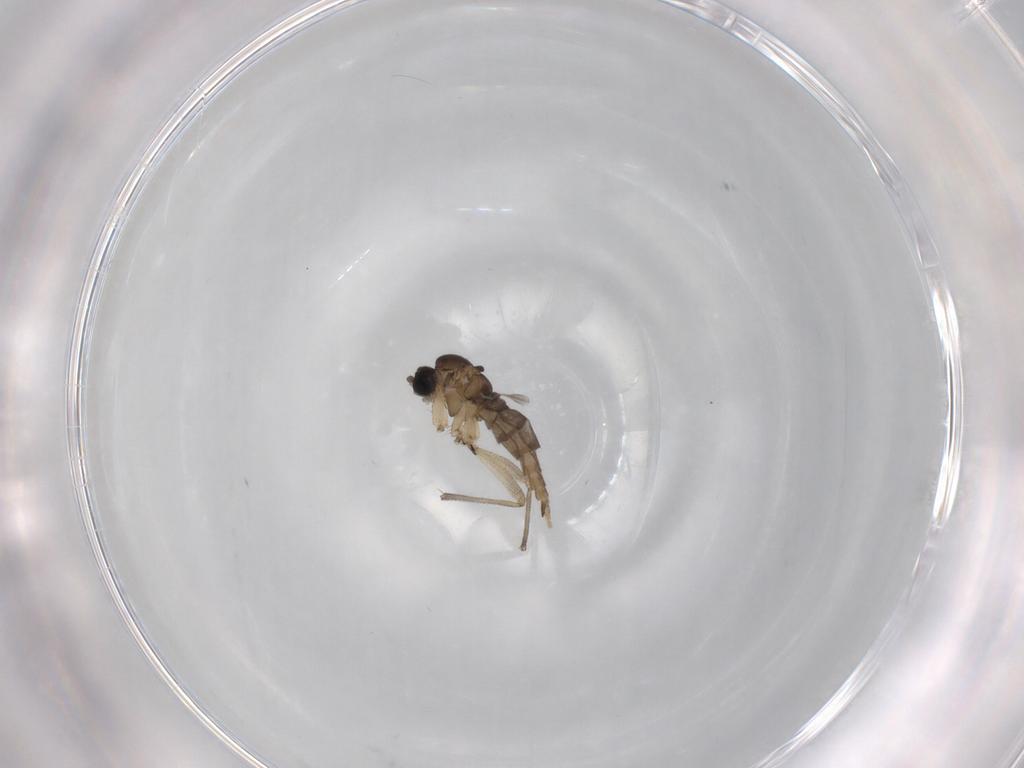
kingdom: Animalia
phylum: Arthropoda
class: Insecta
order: Diptera
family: Sciaridae
